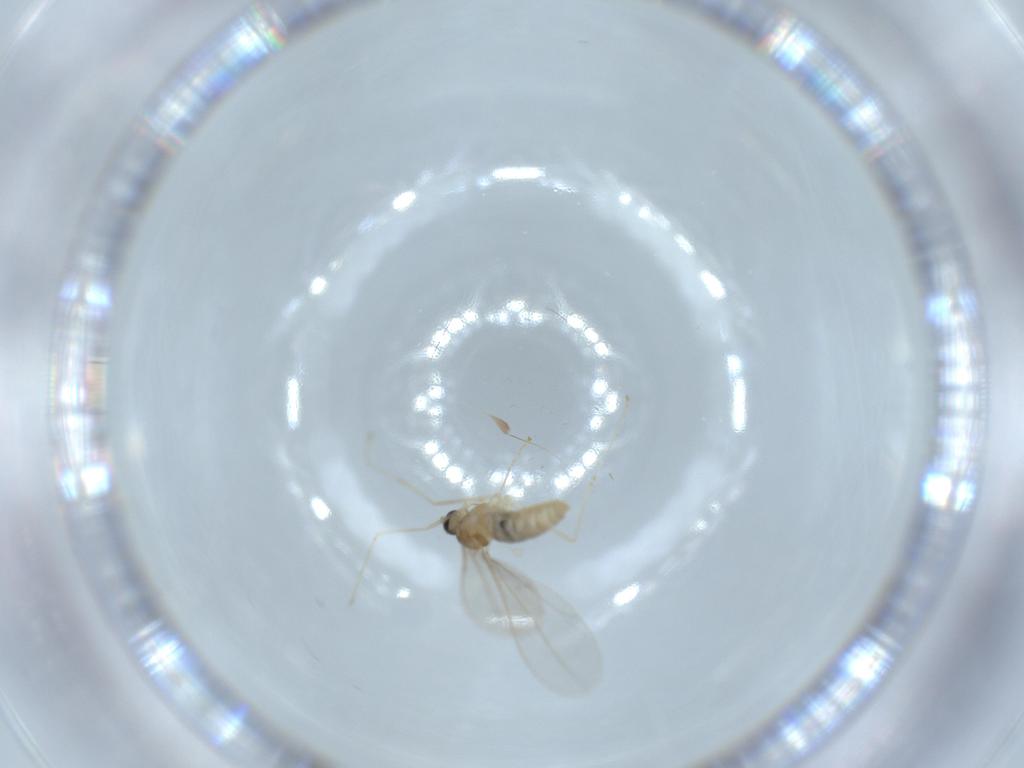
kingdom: Animalia
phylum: Arthropoda
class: Insecta
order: Diptera
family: Cecidomyiidae
